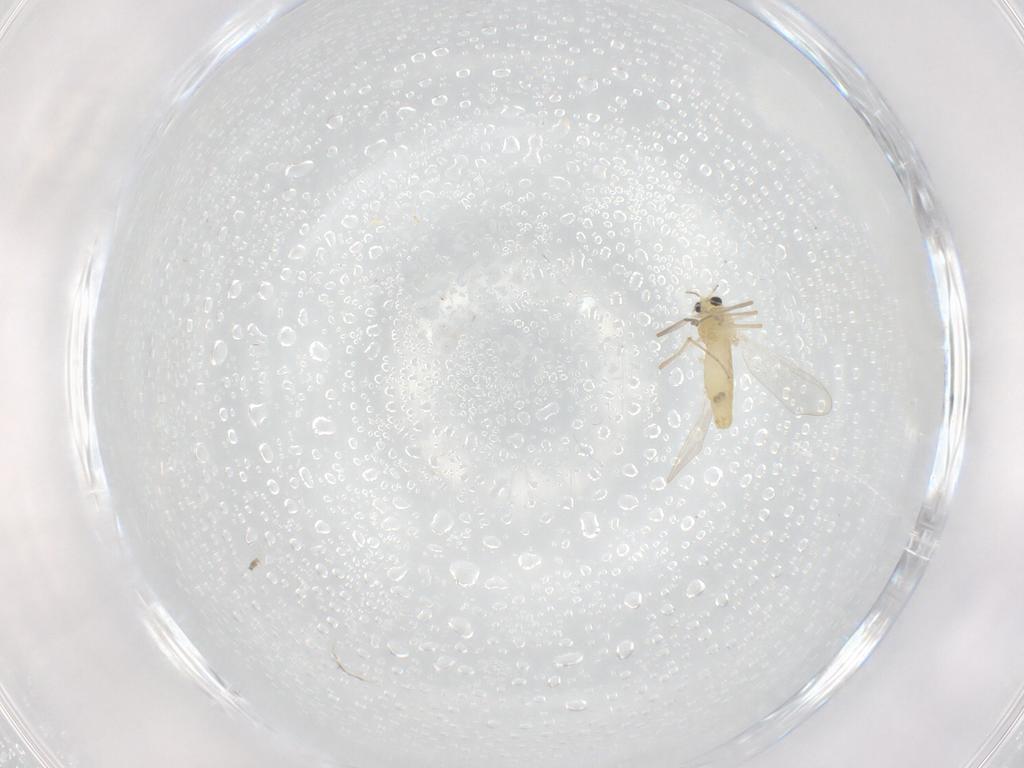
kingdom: Animalia
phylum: Arthropoda
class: Insecta
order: Diptera
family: Chironomidae
